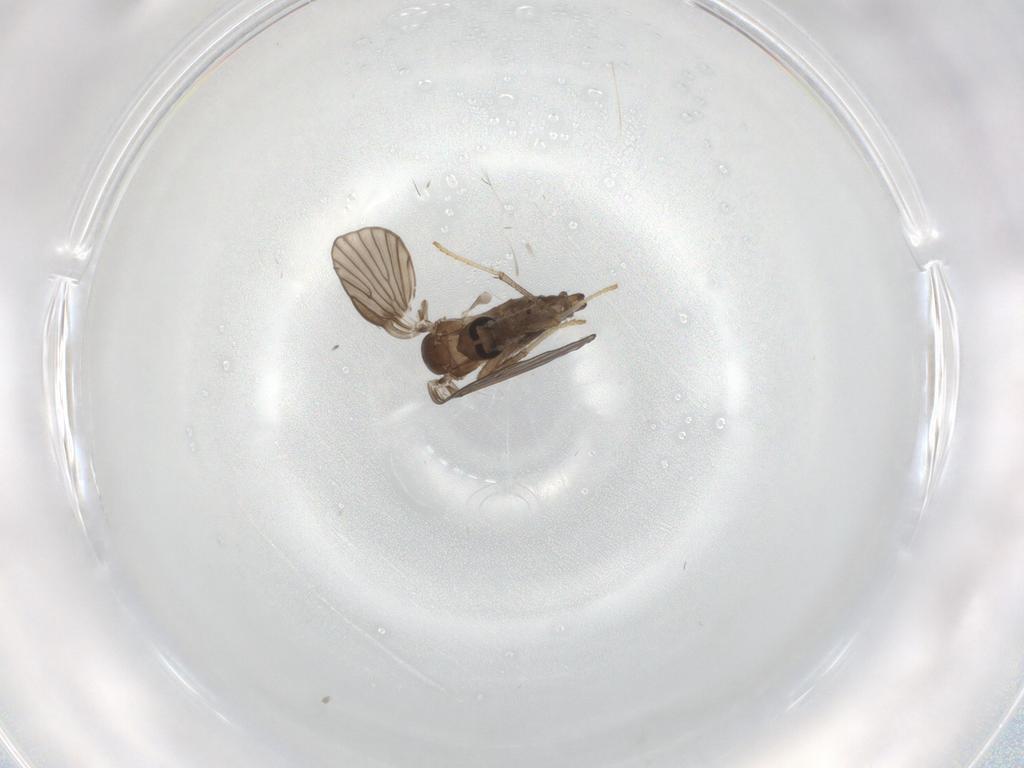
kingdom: Animalia
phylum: Arthropoda
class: Insecta
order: Diptera
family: Psychodidae
